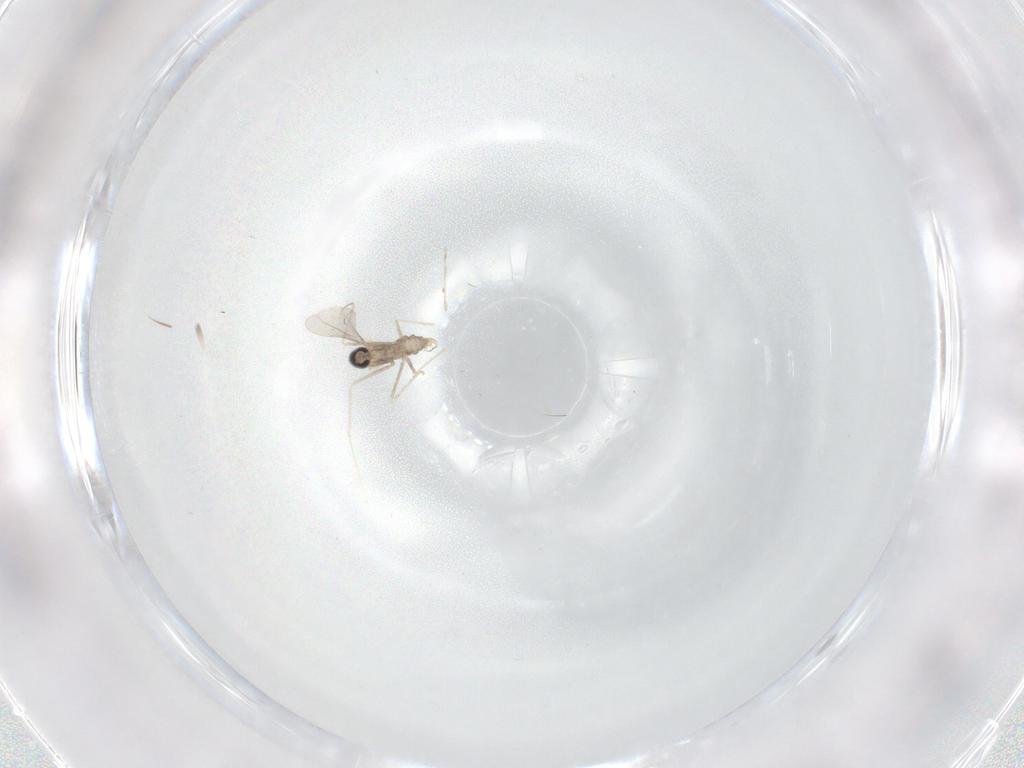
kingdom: Animalia
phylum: Arthropoda
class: Insecta
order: Diptera
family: Cecidomyiidae
